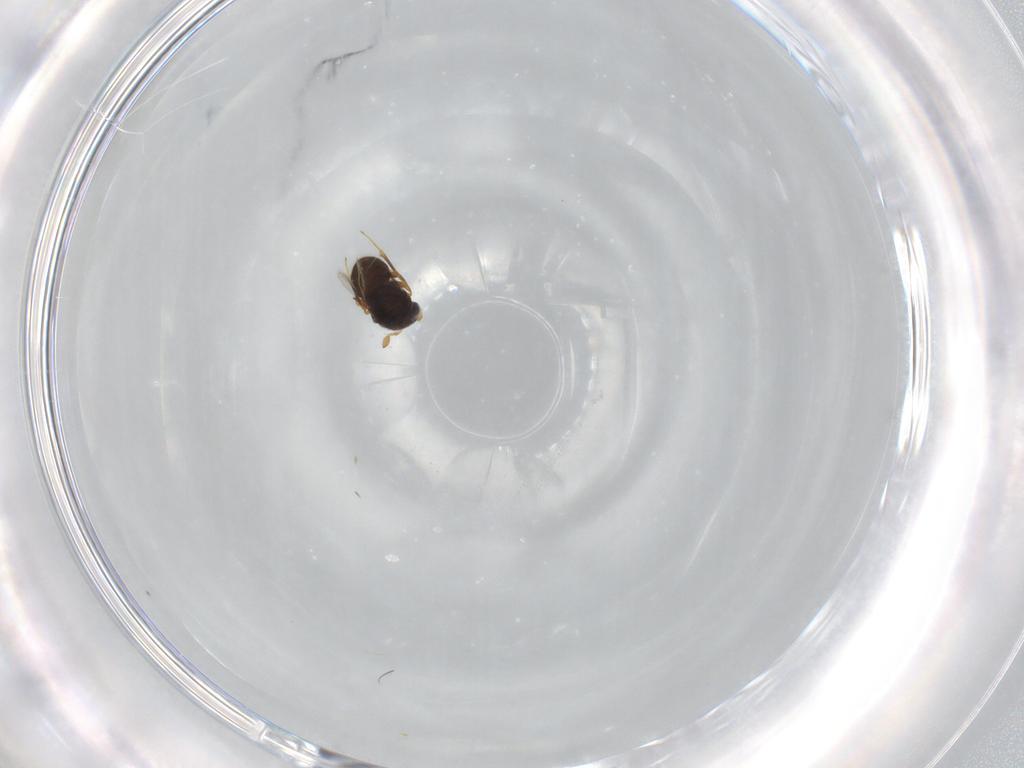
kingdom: Animalia
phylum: Arthropoda
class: Insecta
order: Hymenoptera
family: Scelionidae
